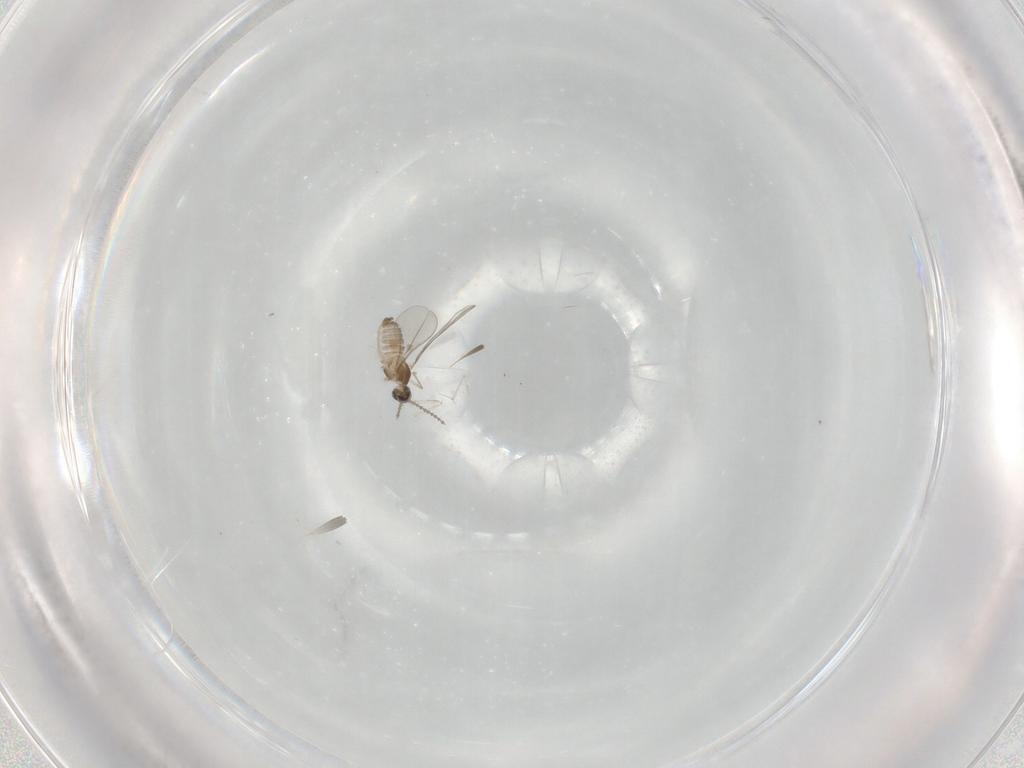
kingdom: Animalia
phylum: Arthropoda
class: Insecta
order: Diptera
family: Cecidomyiidae
